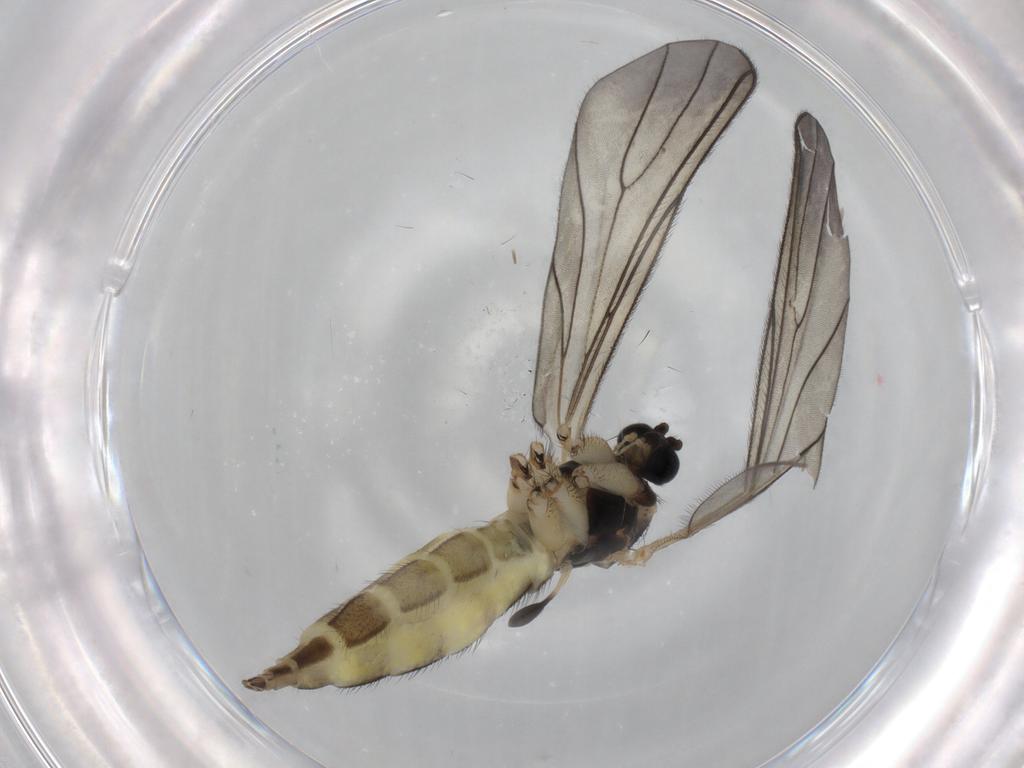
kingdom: Animalia
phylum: Arthropoda
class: Insecta
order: Diptera
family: Sciaridae
